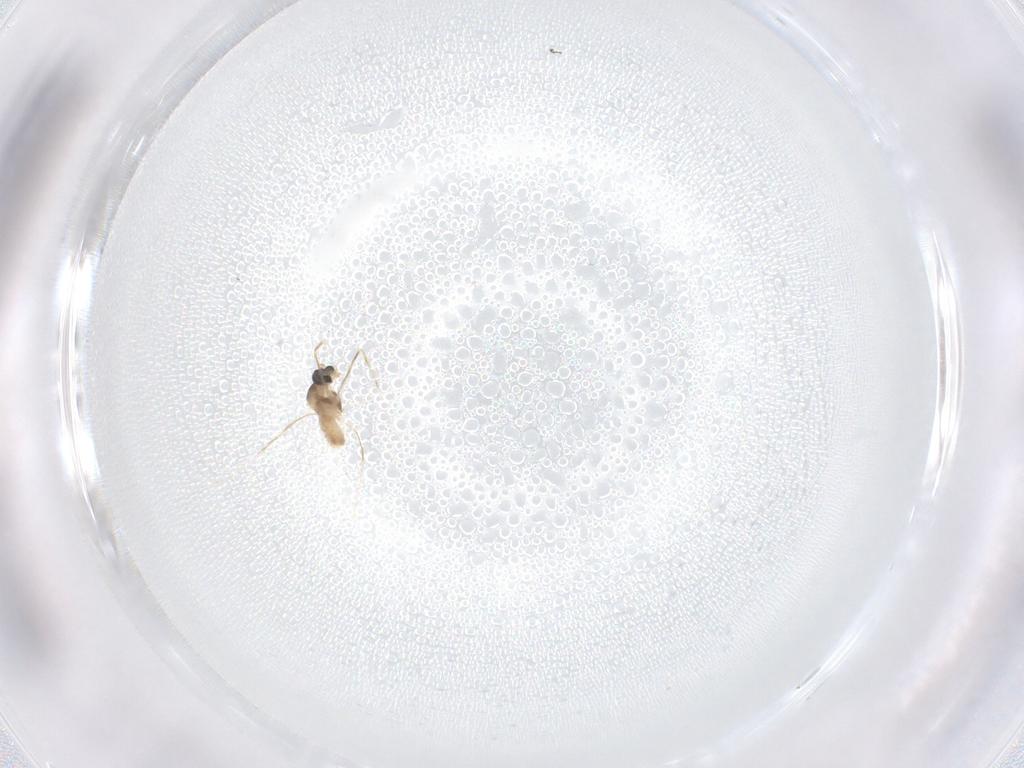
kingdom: Animalia
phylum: Arthropoda
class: Insecta
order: Diptera
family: Cecidomyiidae
